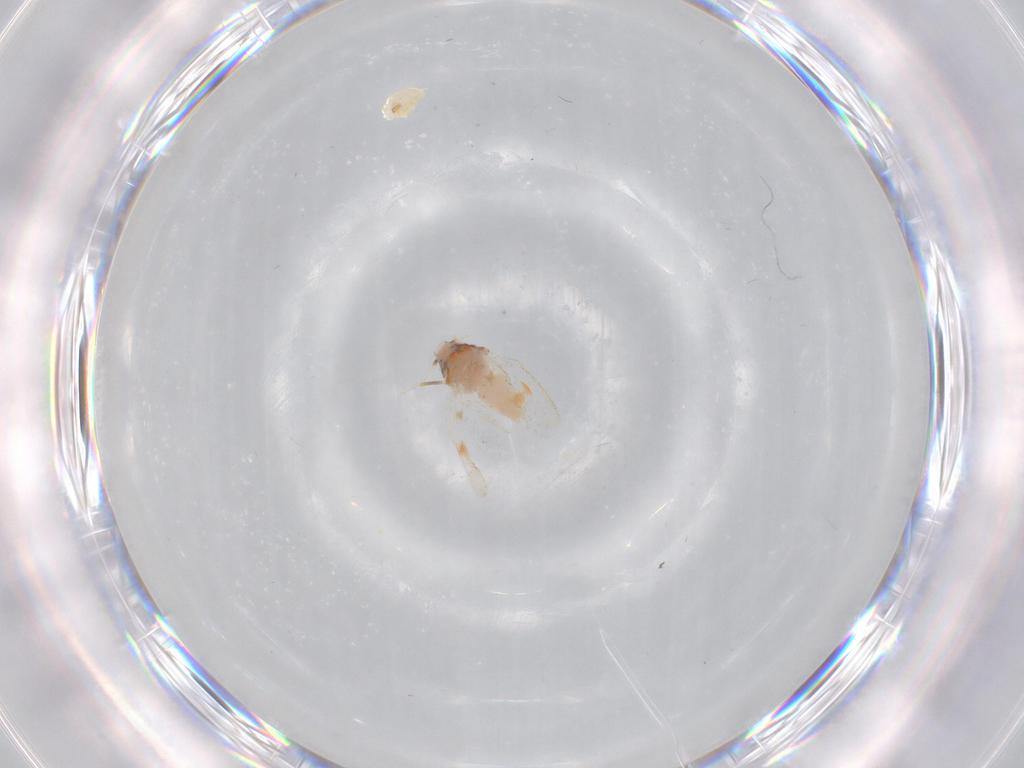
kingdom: Animalia
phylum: Arthropoda
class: Insecta
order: Hemiptera
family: Aleyrodidae
